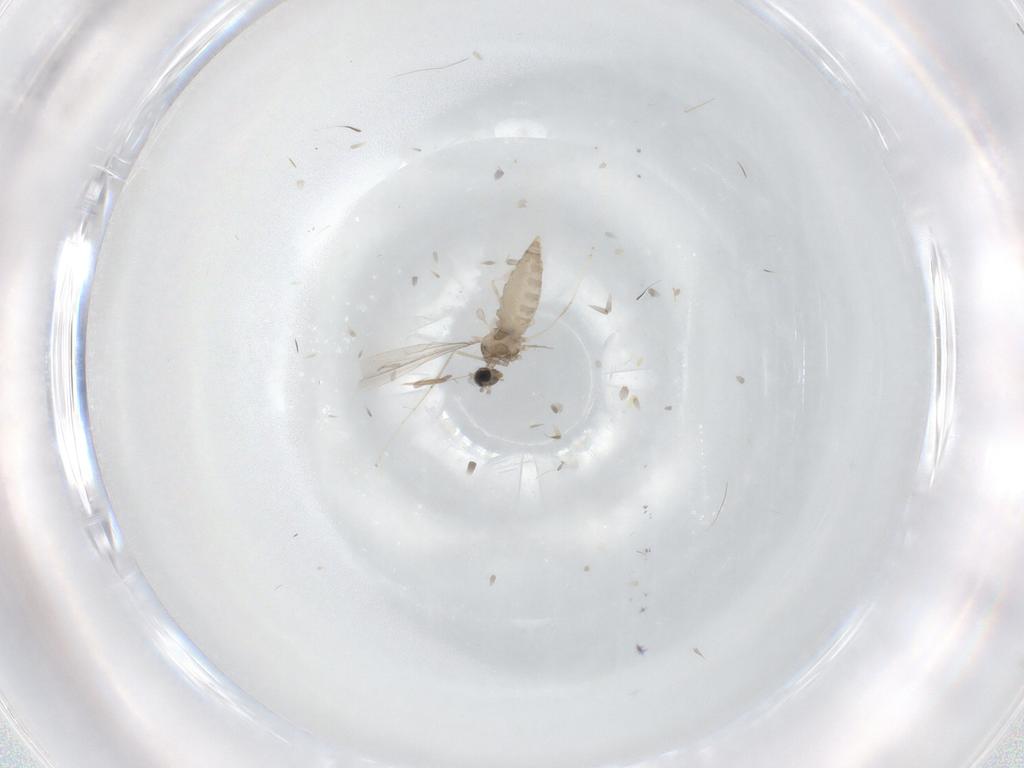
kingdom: Animalia
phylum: Arthropoda
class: Insecta
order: Diptera
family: Cecidomyiidae
